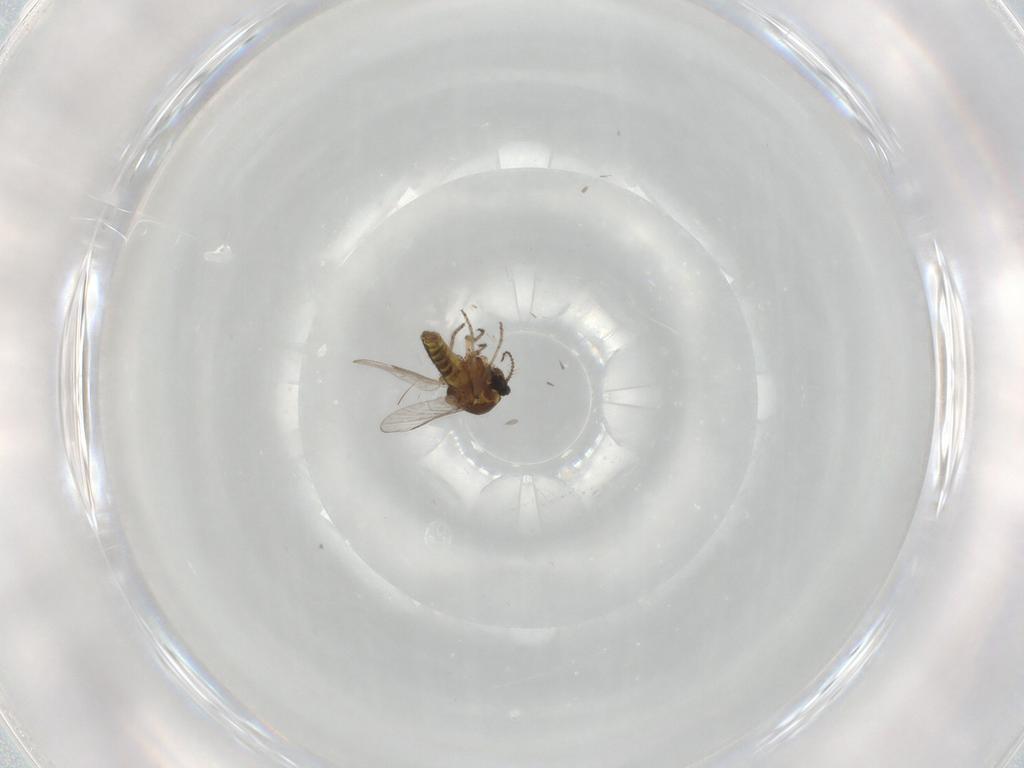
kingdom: Animalia
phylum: Arthropoda
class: Insecta
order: Diptera
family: Ceratopogonidae
